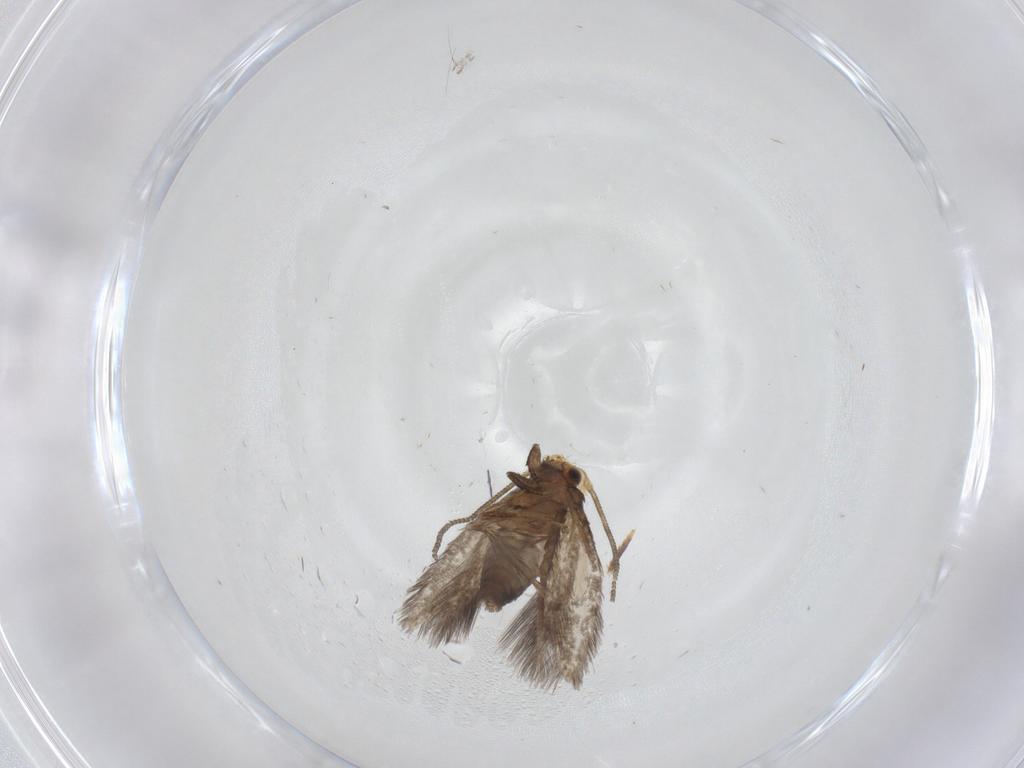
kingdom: Animalia
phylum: Arthropoda
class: Insecta
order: Lepidoptera
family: Nepticulidae
